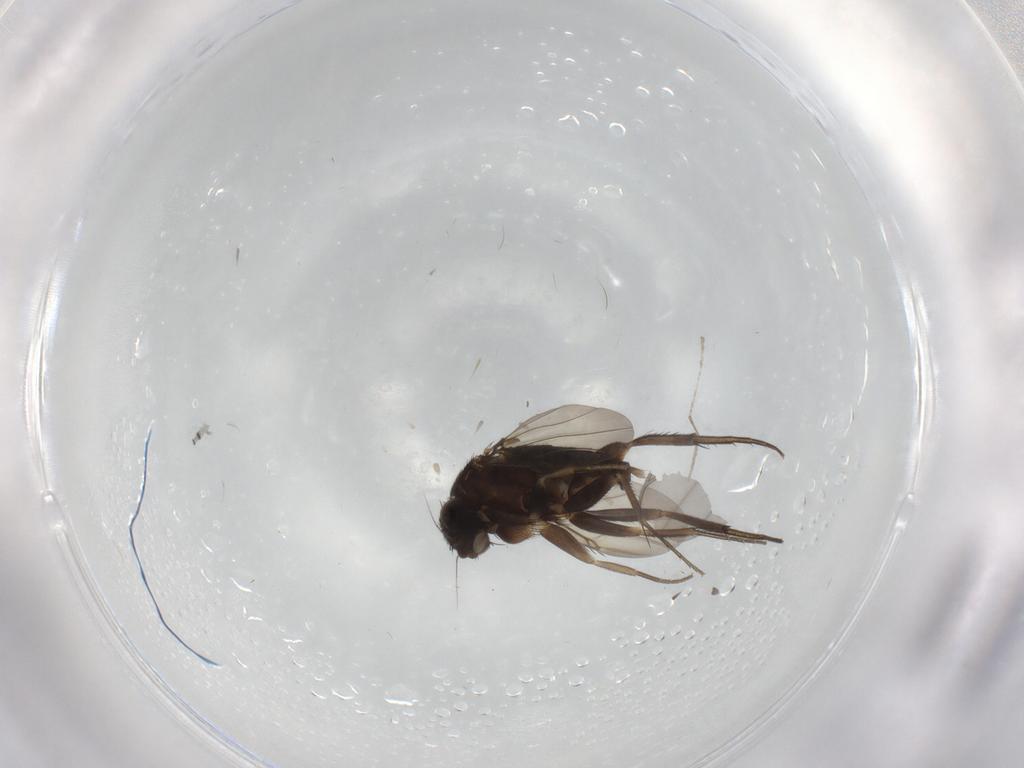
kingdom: Animalia
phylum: Arthropoda
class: Insecta
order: Diptera
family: Phoridae
